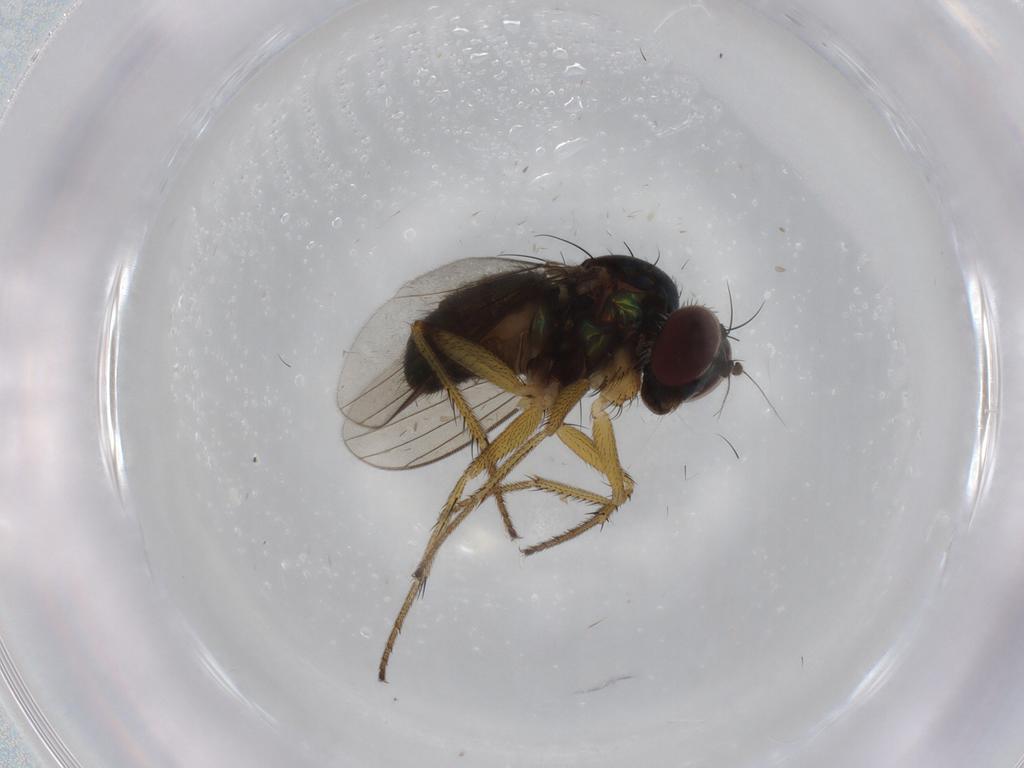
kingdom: Animalia
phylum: Arthropoda
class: Insecta
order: Diptera
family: Dolichopodidae
